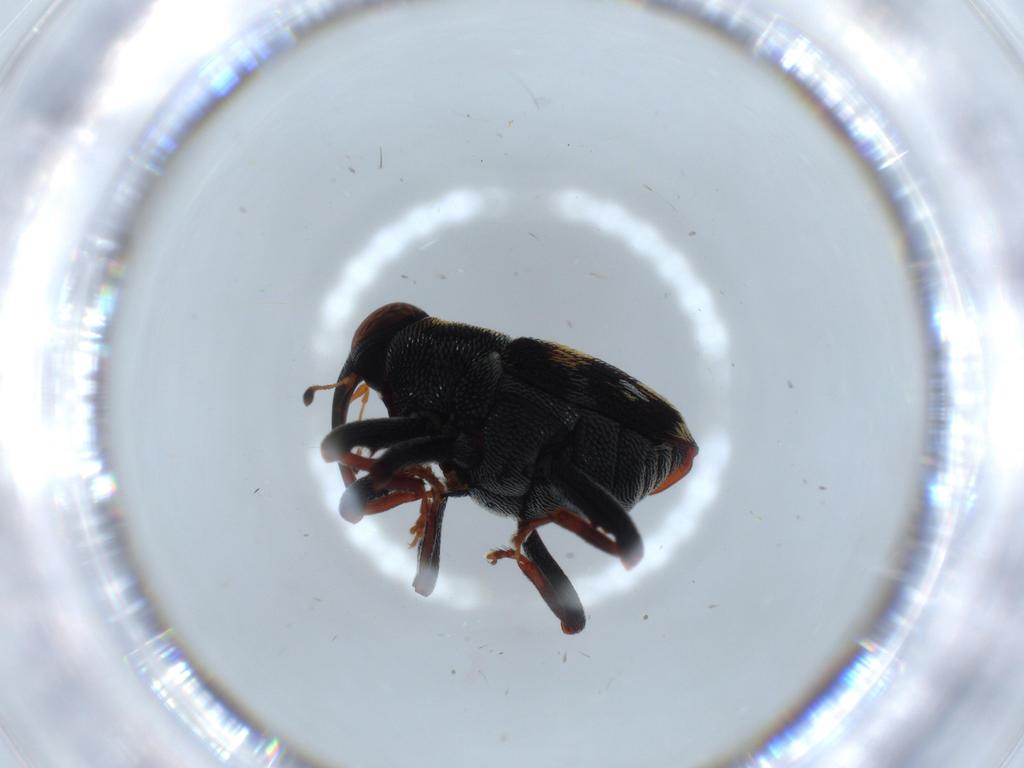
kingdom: Animalia
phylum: Arthropoda
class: Insecta
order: Coleoptera
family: Curculionidae
